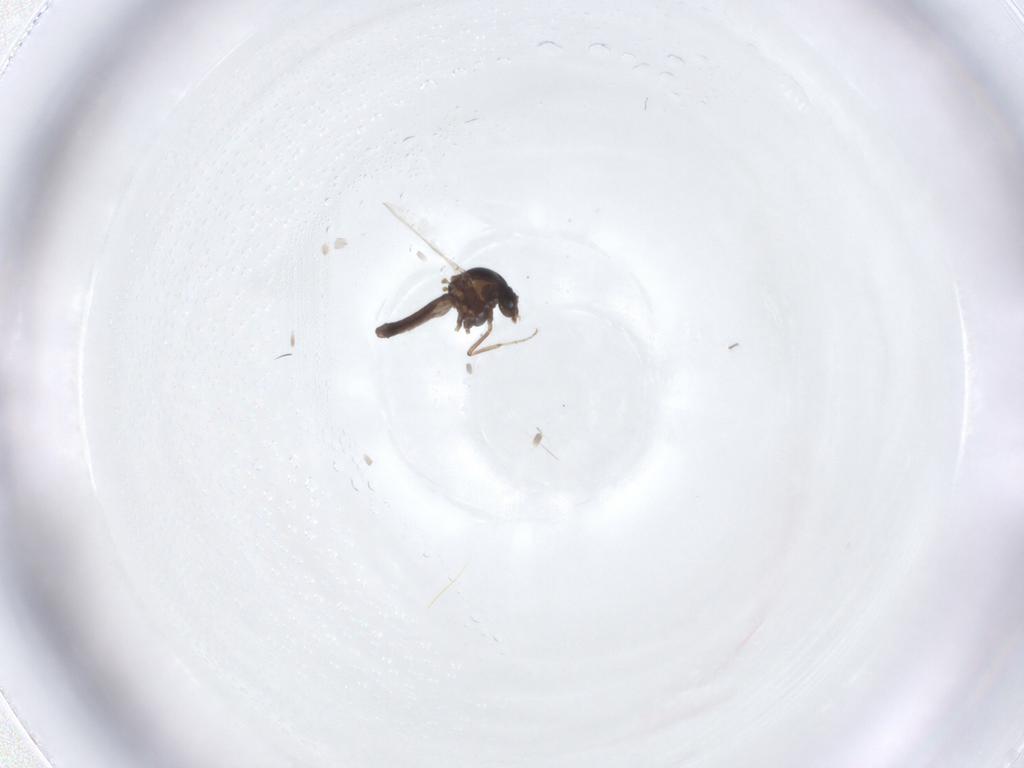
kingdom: Animalia
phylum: Arthropoda
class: Insecta
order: Diptera
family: Ceratopogonidae
